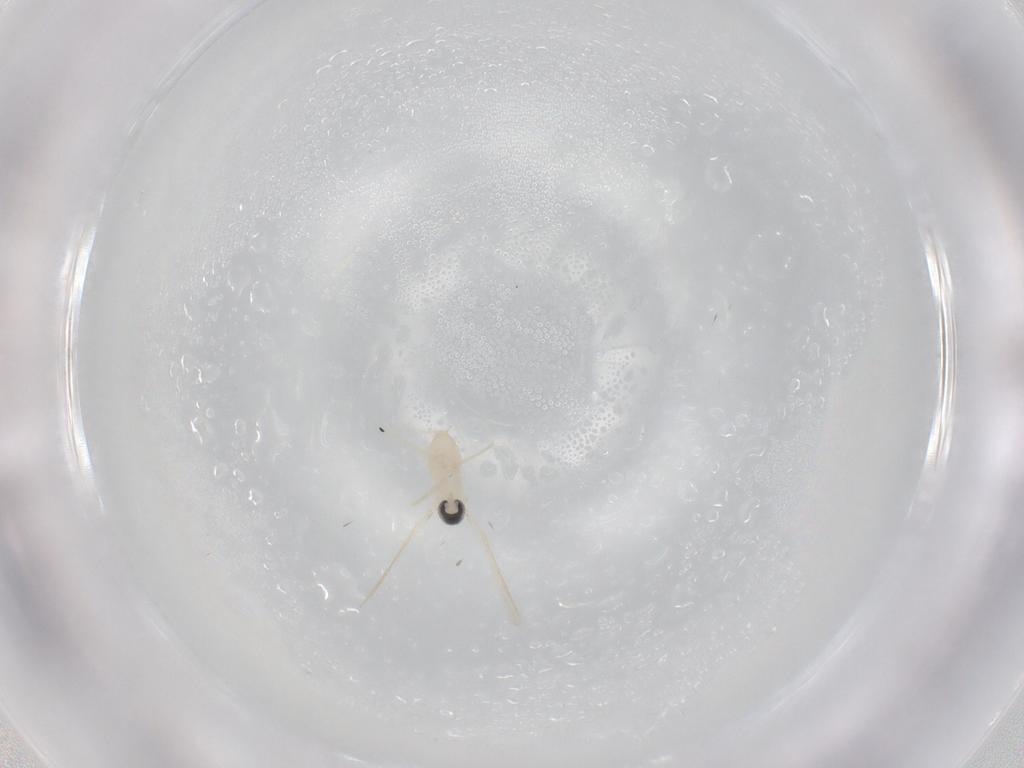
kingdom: Animalia
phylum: Arthropoda
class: Insecta
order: Diptera
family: Cecidomyiidae
